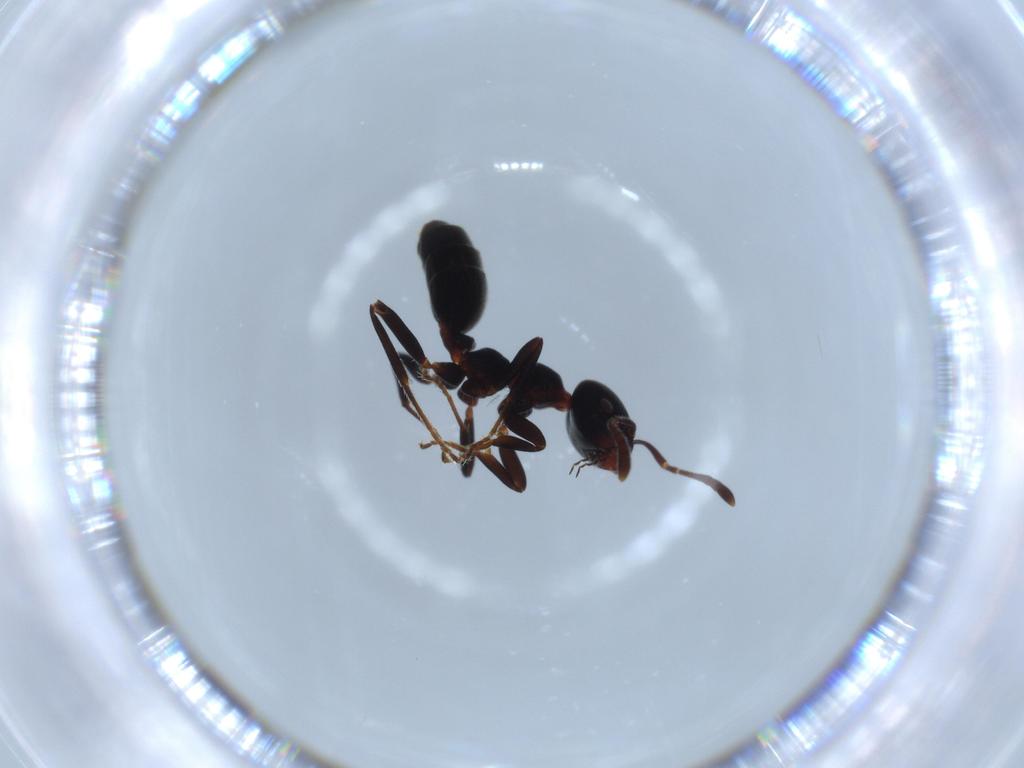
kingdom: Animalia
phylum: Arthropoda
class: Insecta
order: Hymenoptera
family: Formicidae
